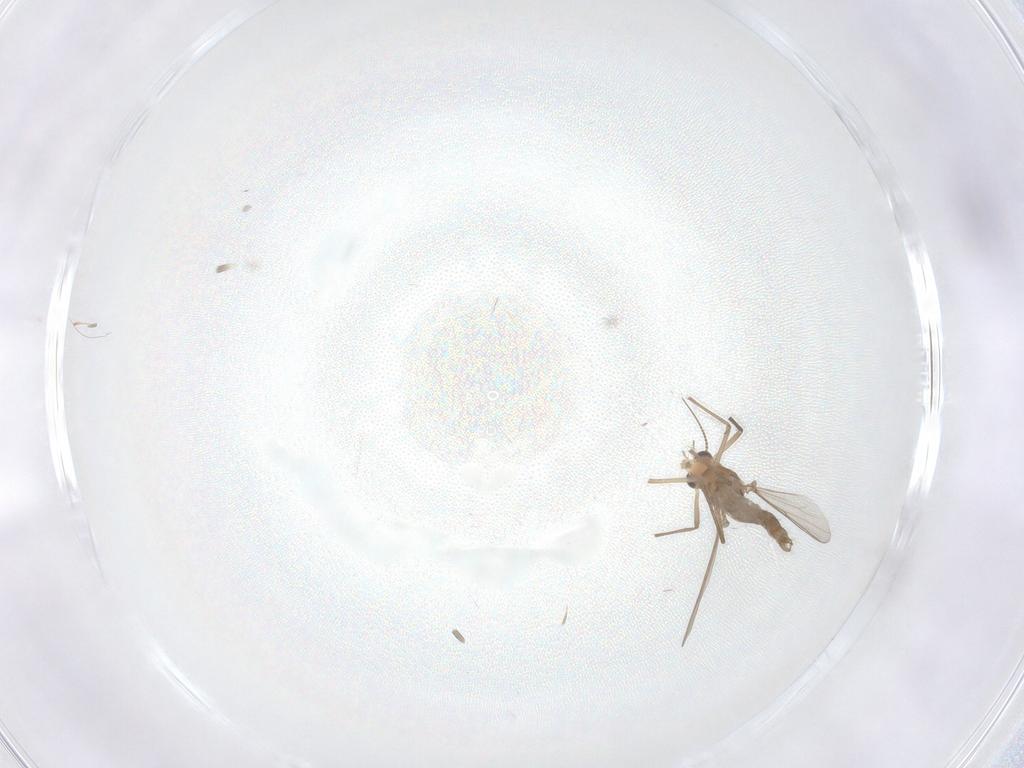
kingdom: Animalia
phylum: Arthropoda
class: Insecta
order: Diptera
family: Chironomidae
